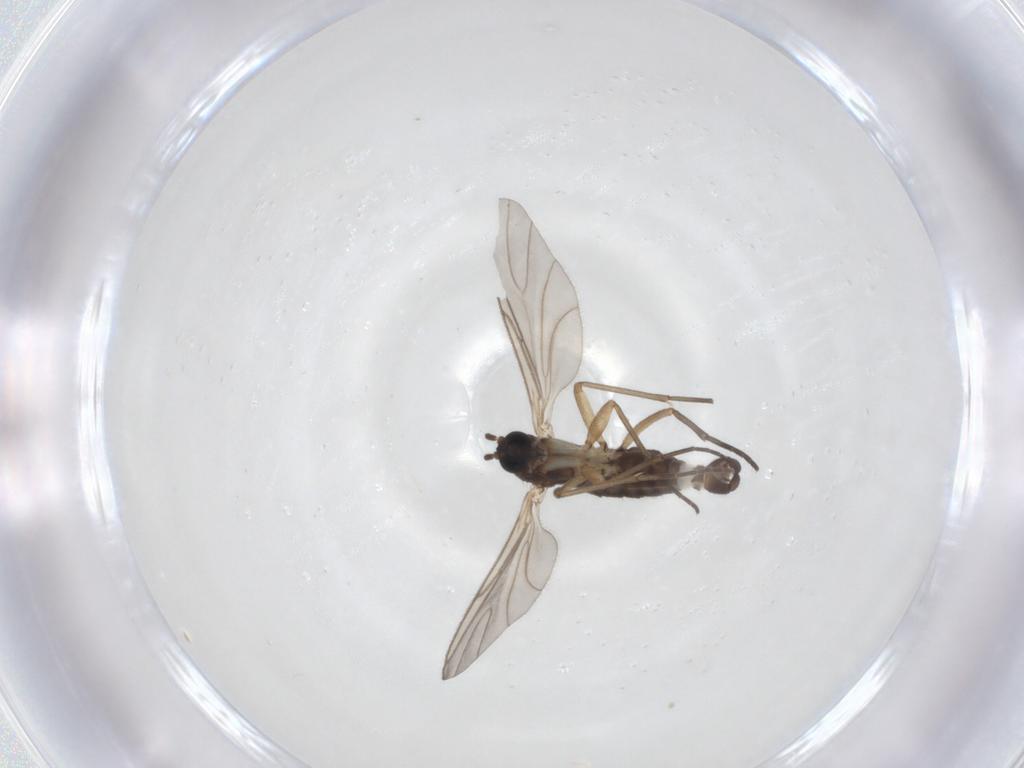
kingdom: Animalia
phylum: Arthropoda
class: Insecta
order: Diptera
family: Sciaridae
